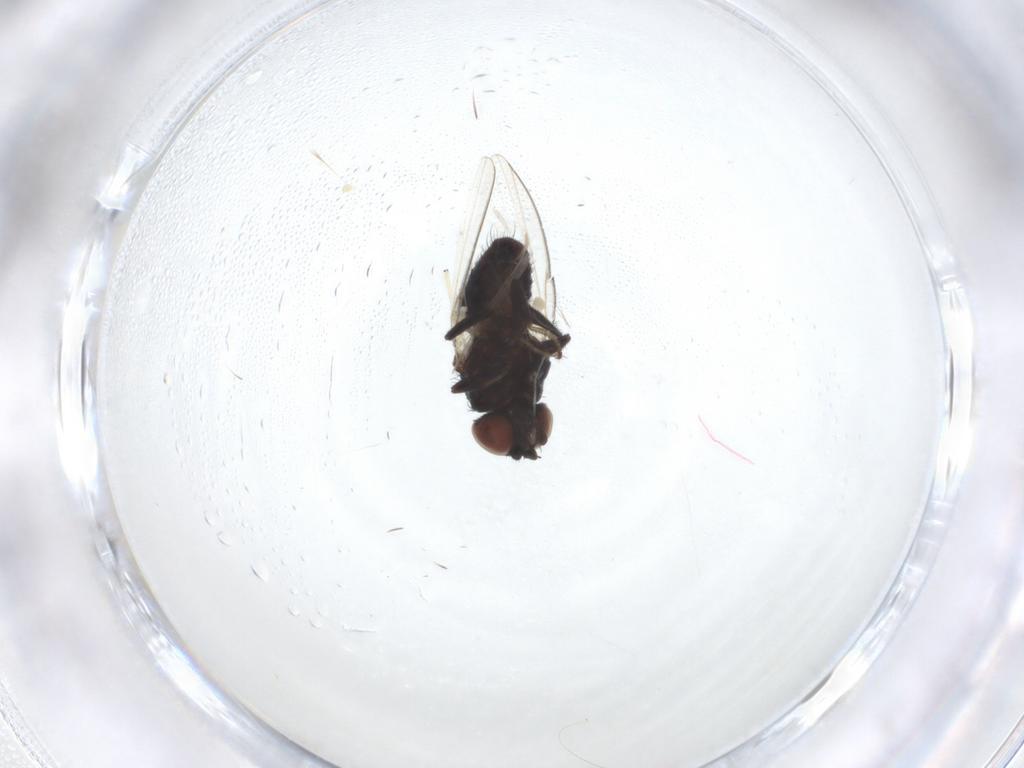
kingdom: Animalia
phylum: Arthropoda
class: Insecta
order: Diptera
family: Chironomidae
